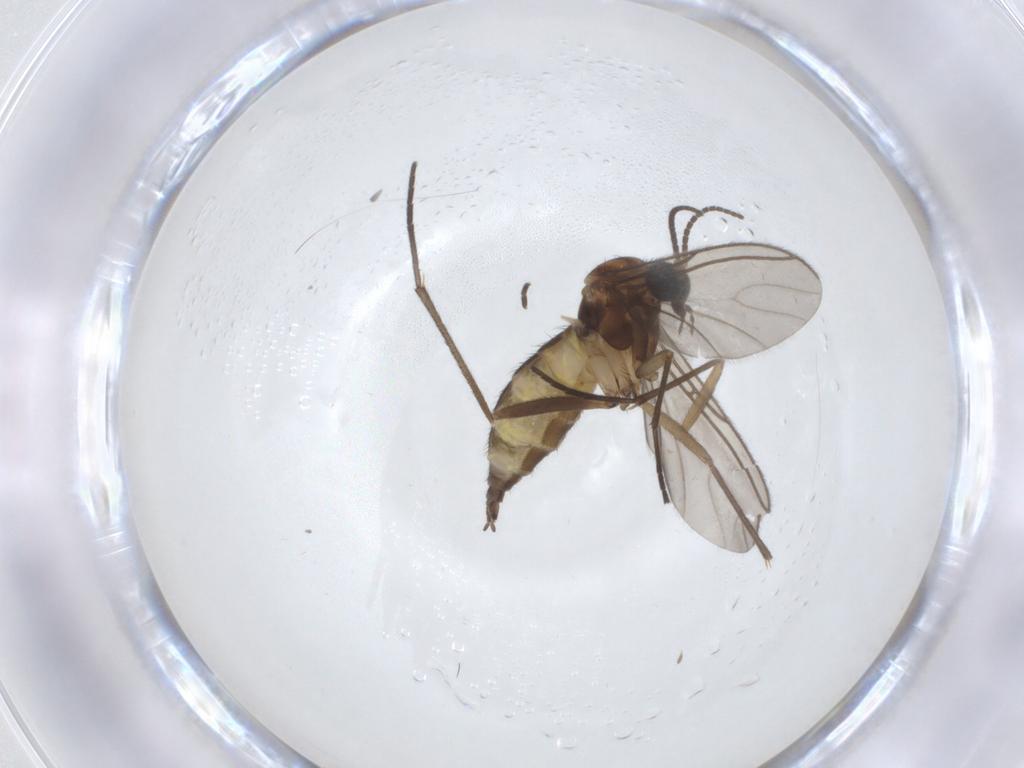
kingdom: Animalia
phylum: Arthropoda
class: Insecta
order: Diptera
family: Sciaridae
